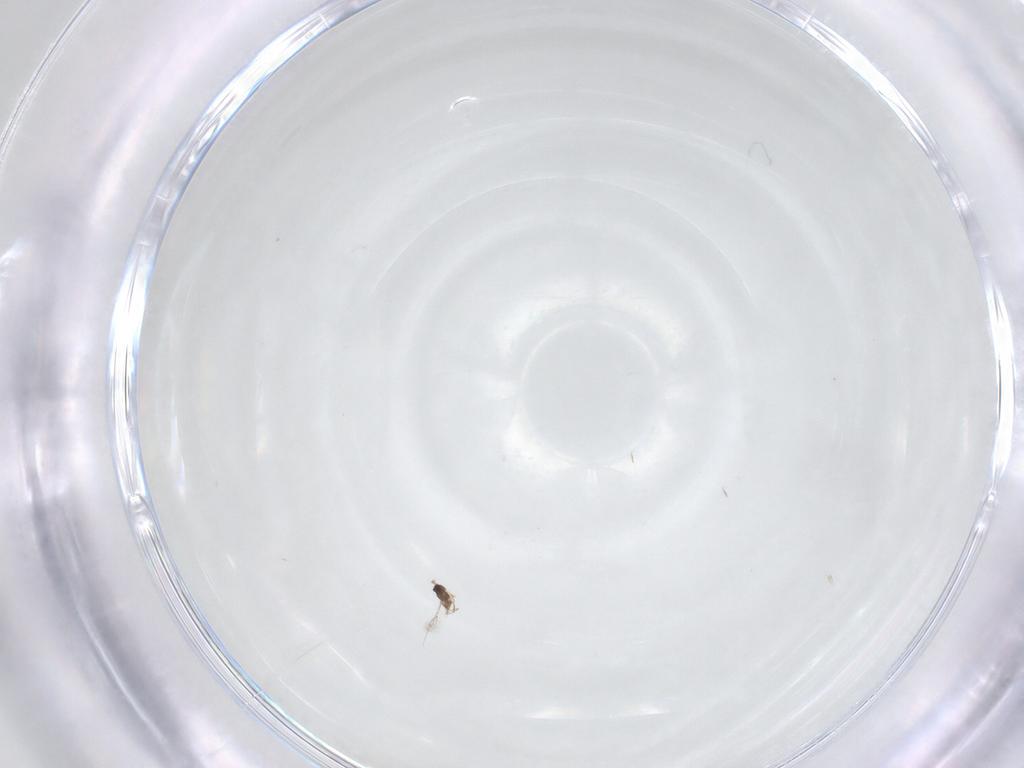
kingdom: Animalia
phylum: Arthropoda
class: Insecta
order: Hymenoptera
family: Mymaridae
